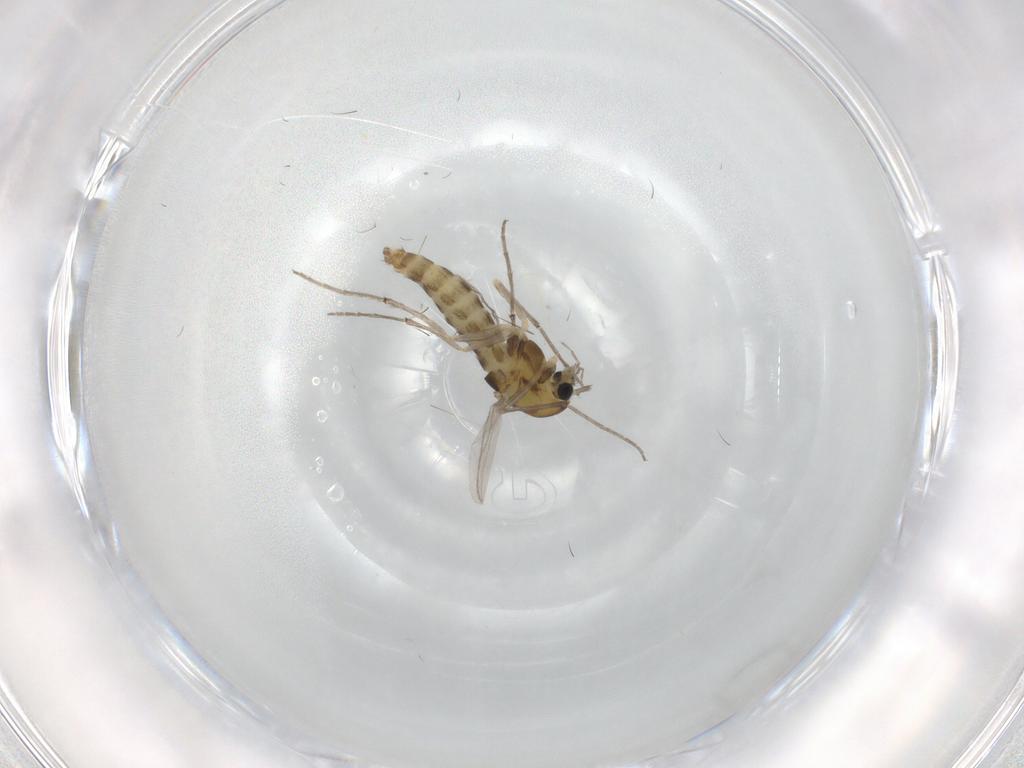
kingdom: Animalia
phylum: Arthropoda
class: Insecta
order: Diptera
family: Chironomidae
